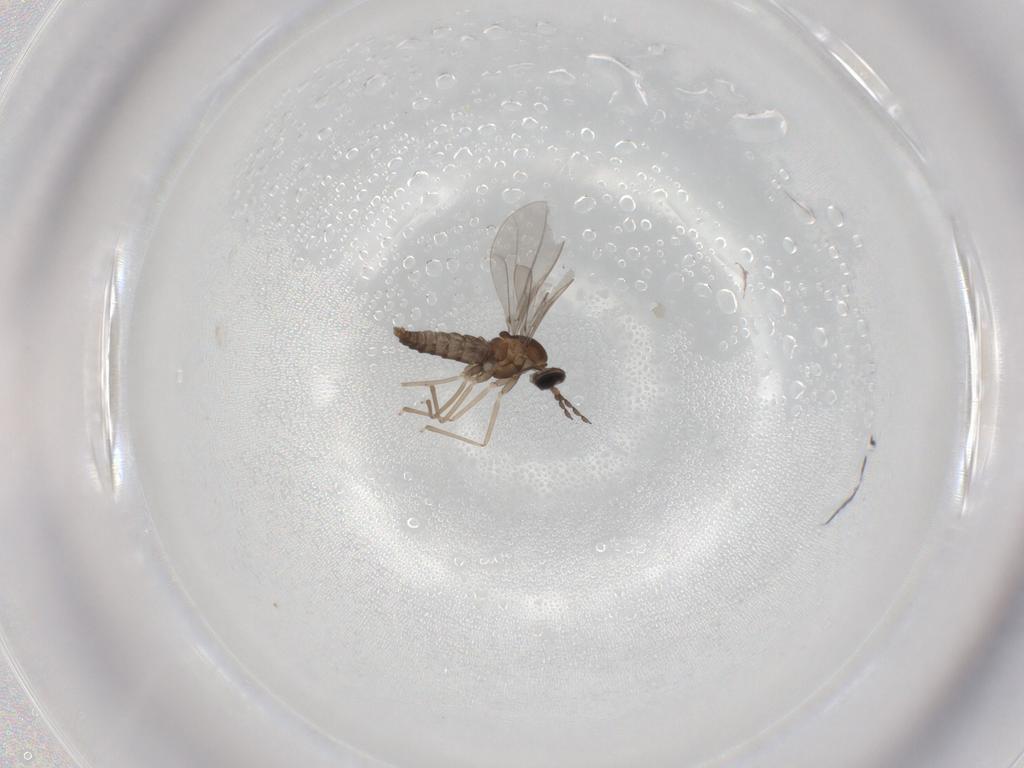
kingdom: Animalia
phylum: Arthropoda
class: Insecta
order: Diptera
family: Cecidomyiidae
